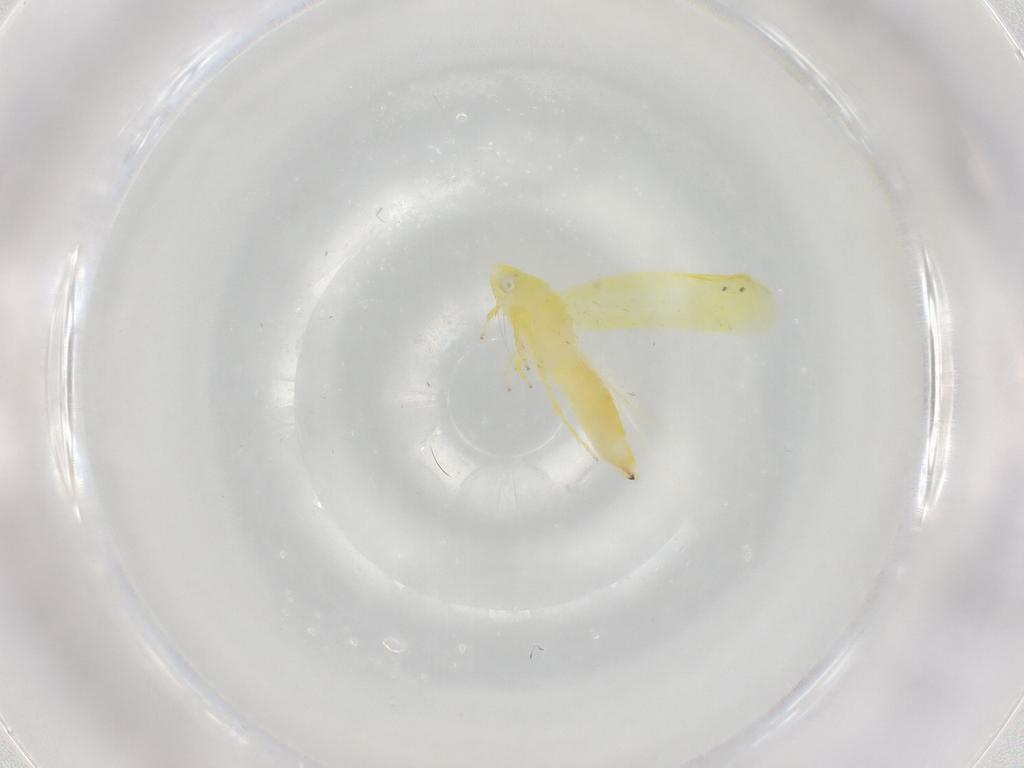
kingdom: Animalia
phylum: Arthropoda
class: Insecta
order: Hemiptera
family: Cicadellidae
